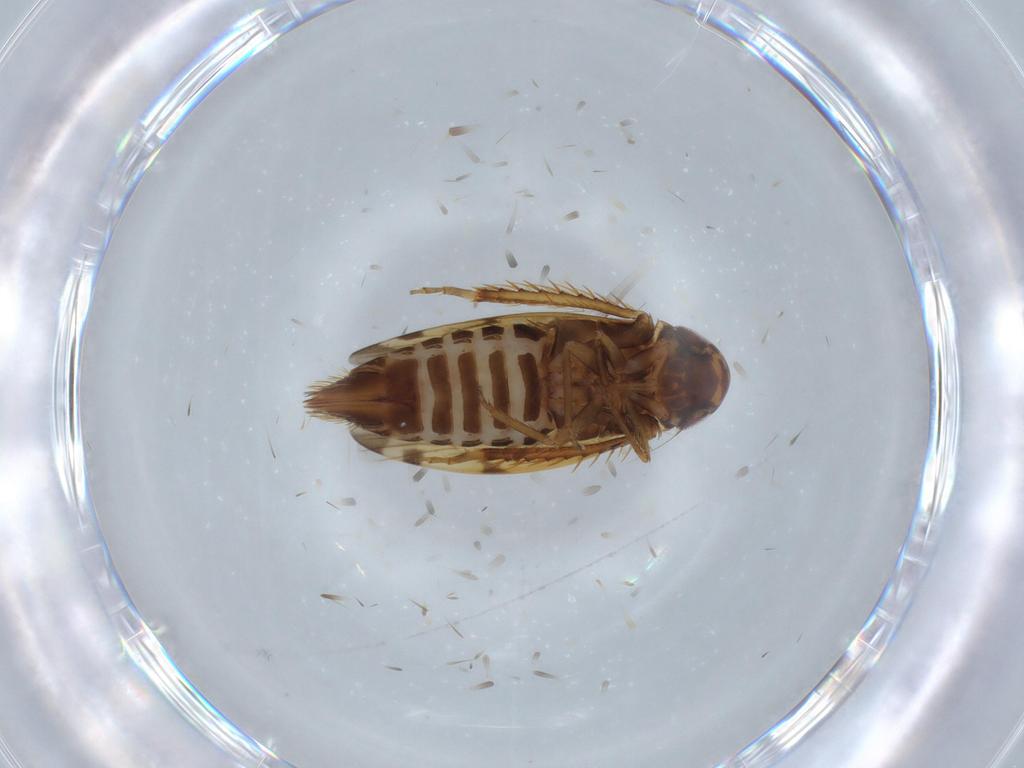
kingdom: Animalia
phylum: Arthropoda
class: Insecta
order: Hemiptera
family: Cicadellidae
